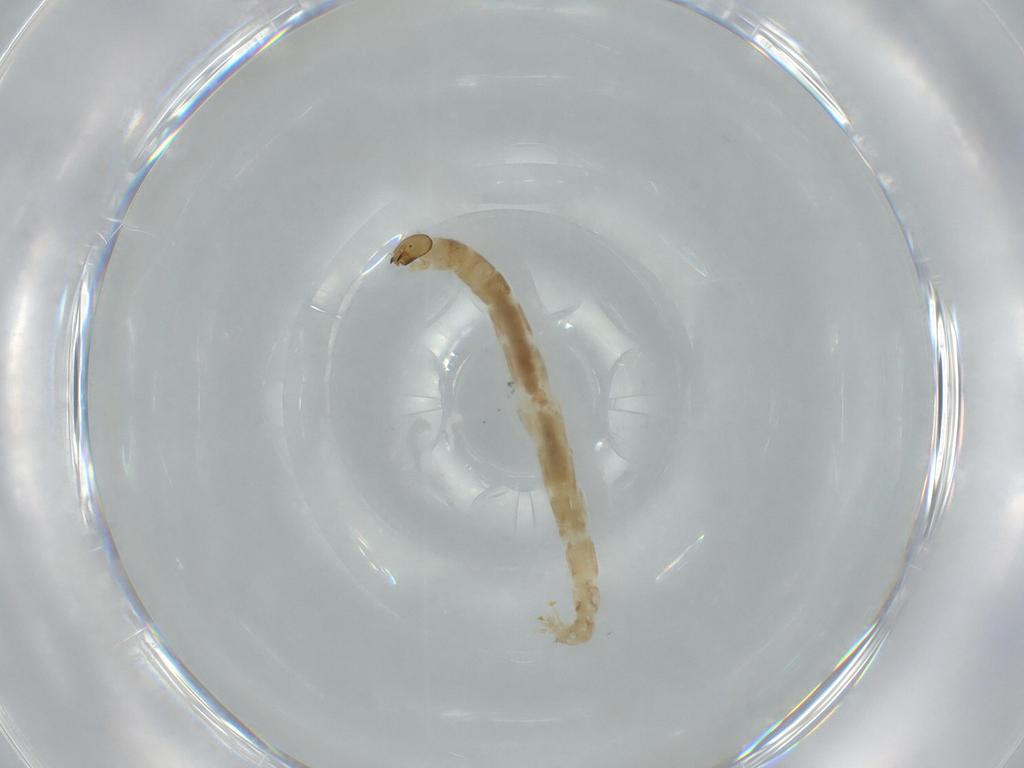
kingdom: Animalia
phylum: Arthropoda
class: Insecta
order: Diptera
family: Chironomidae
